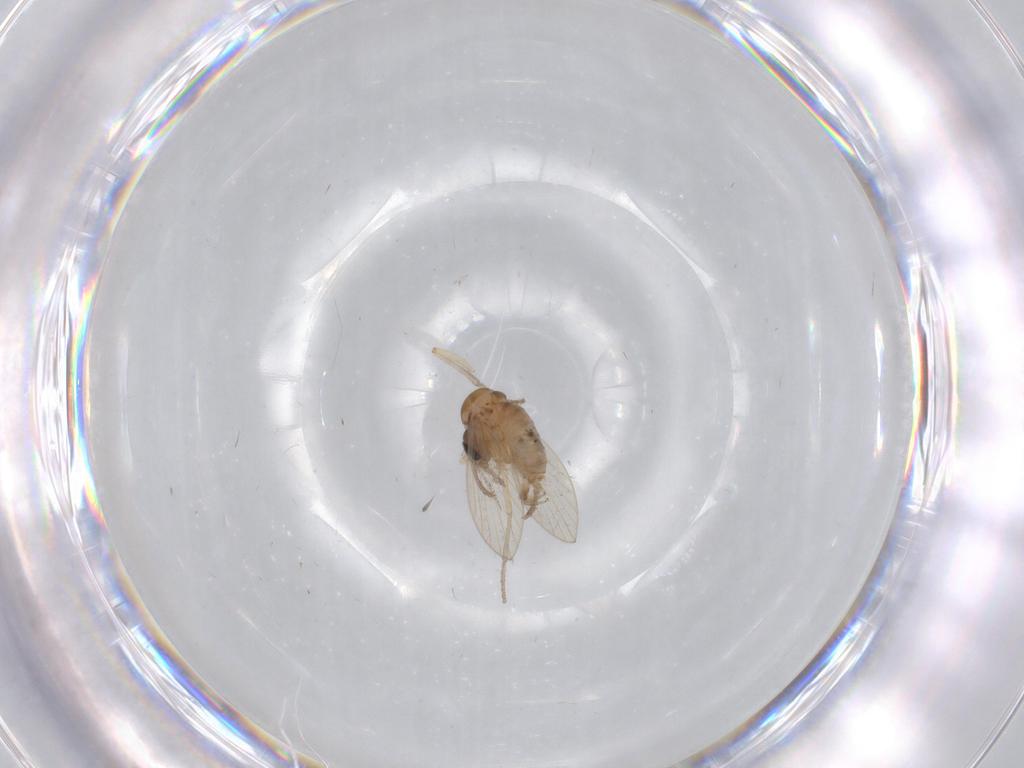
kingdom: Animalia
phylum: Arthropoda
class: Insecta
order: Diptera
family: Psychodidae
